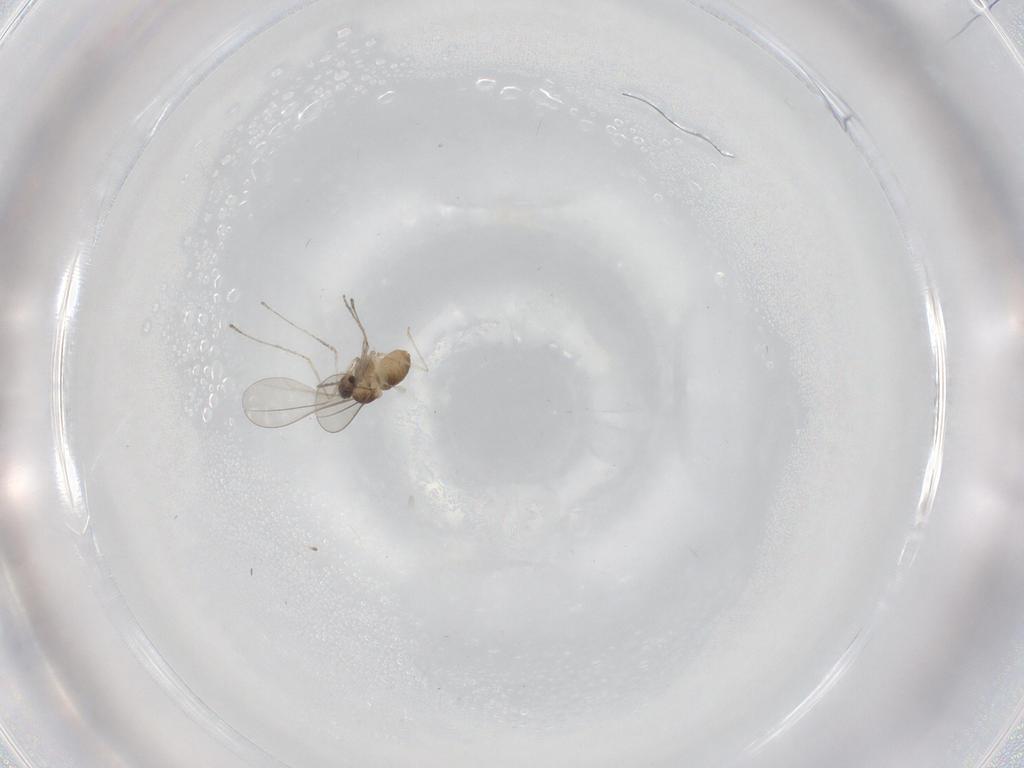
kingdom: Animalia
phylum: Arthropoda
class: Insecta
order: Diptera
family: Cecidomyiidae
